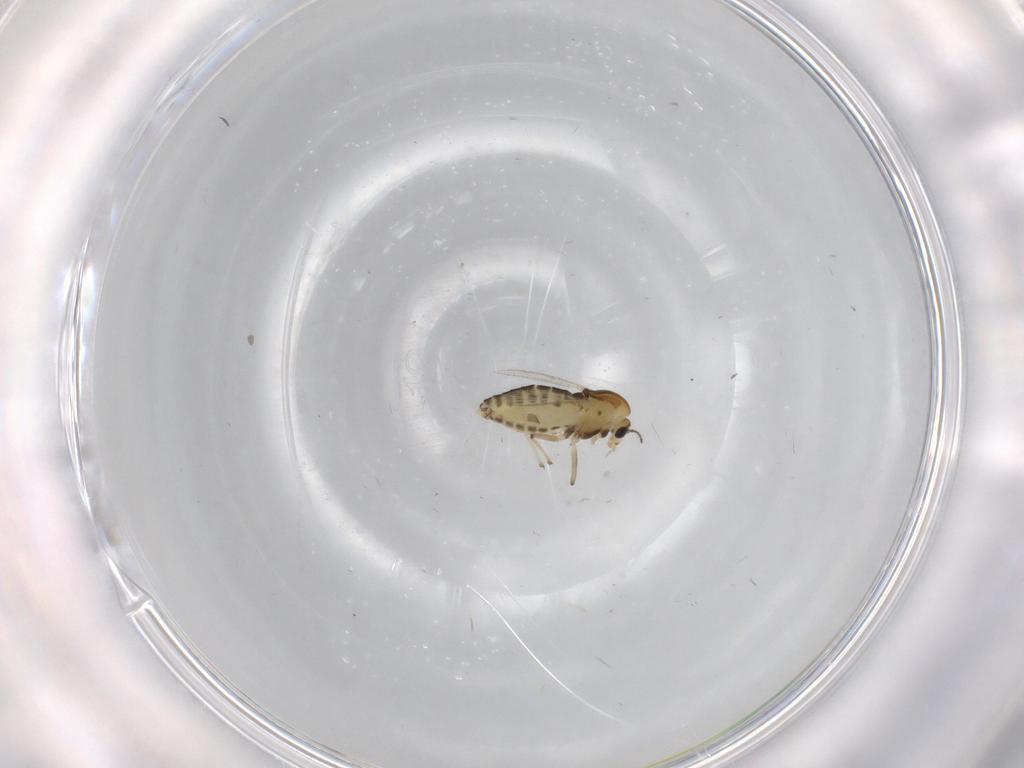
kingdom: Animalia
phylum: Arthropoda
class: Insecta
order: Diptera
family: Chironomidae
